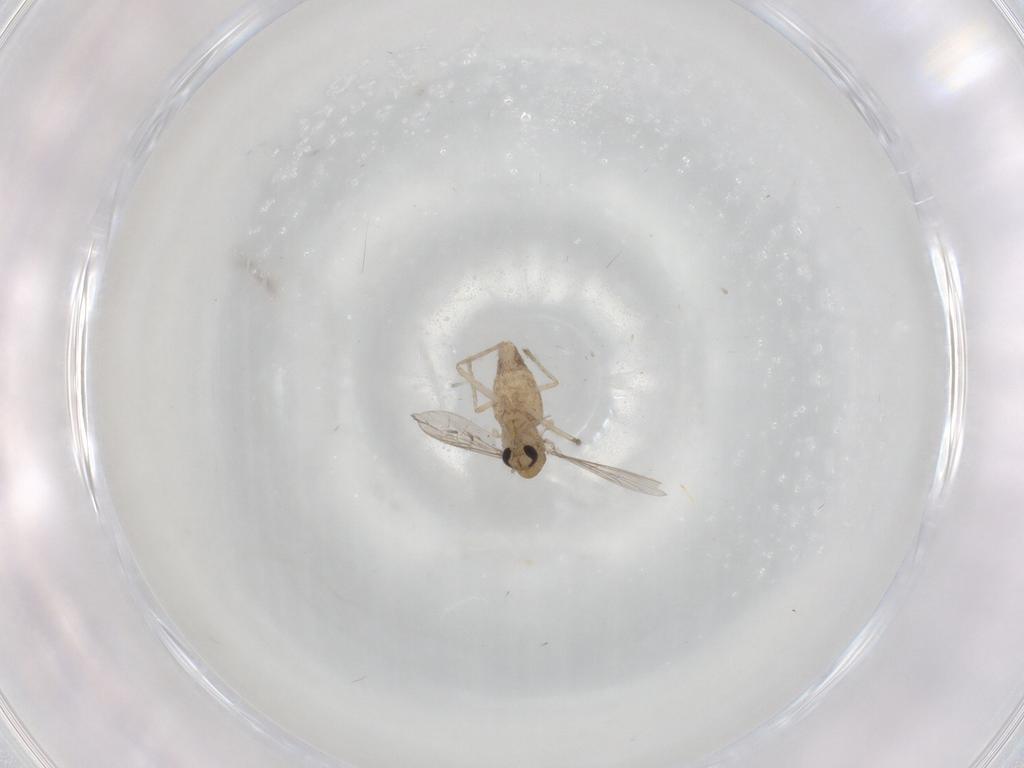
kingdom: Animalia
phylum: Arthropoda
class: Insecta
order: Diptera
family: Chironomidae
